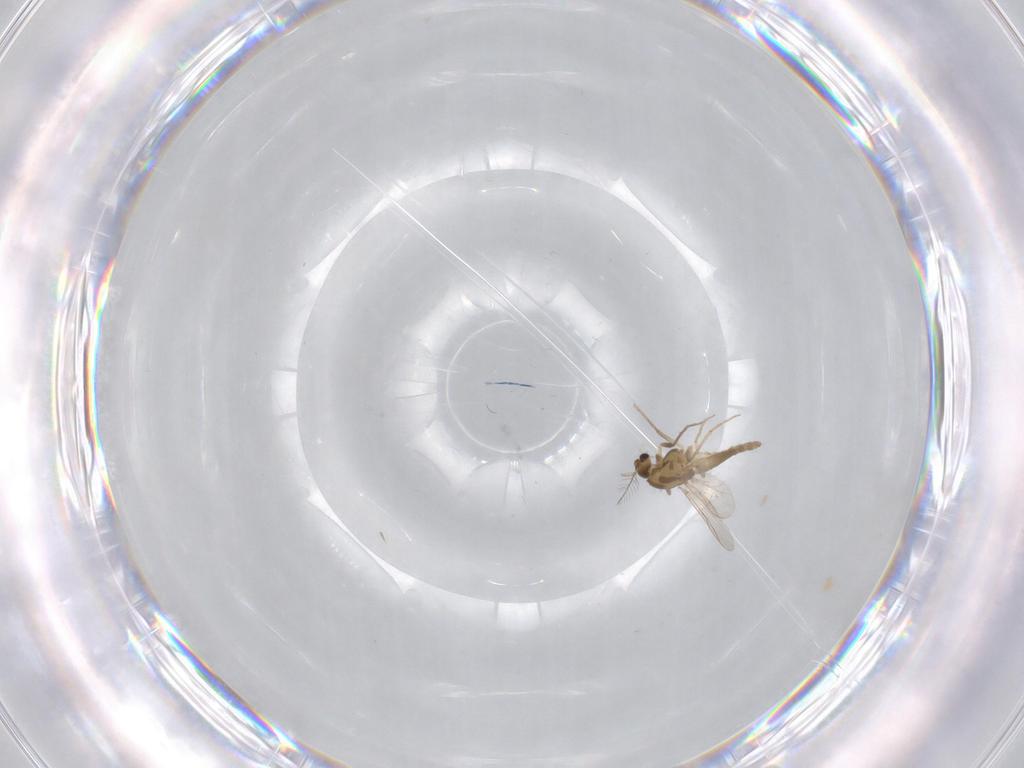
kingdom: Animalia
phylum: Arthropoda
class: Insecta
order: Diptera
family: Chironomidae
